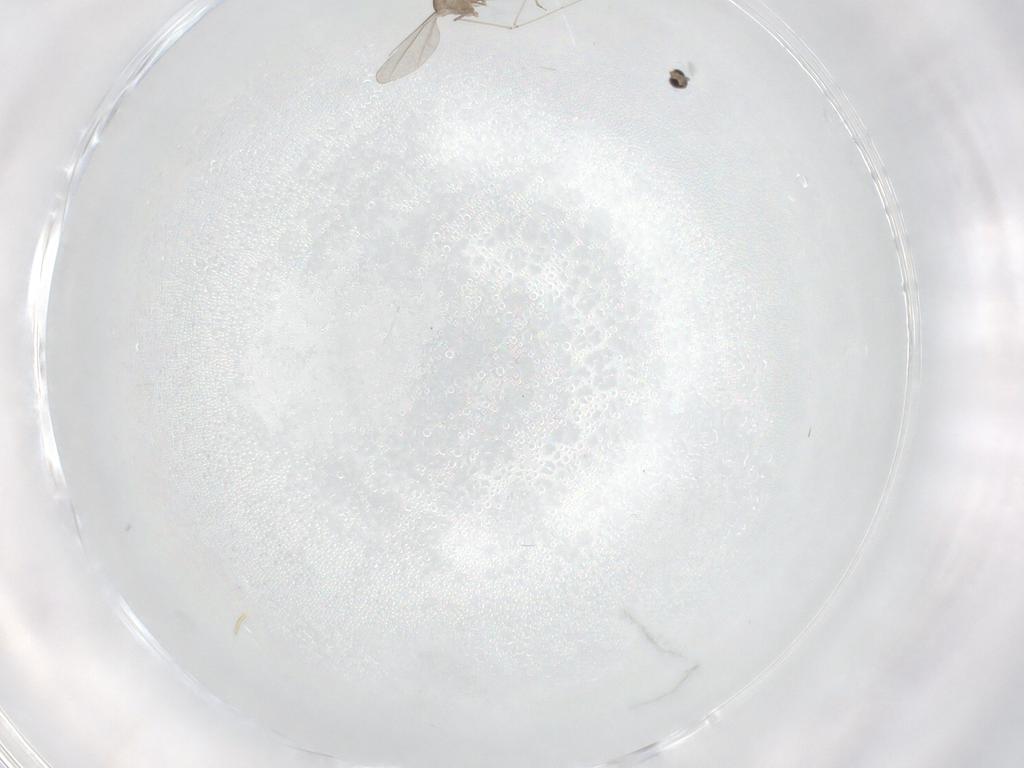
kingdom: Animalia
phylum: Arthropoda
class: Insecta
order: Diptera
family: Cecidomyiidae
